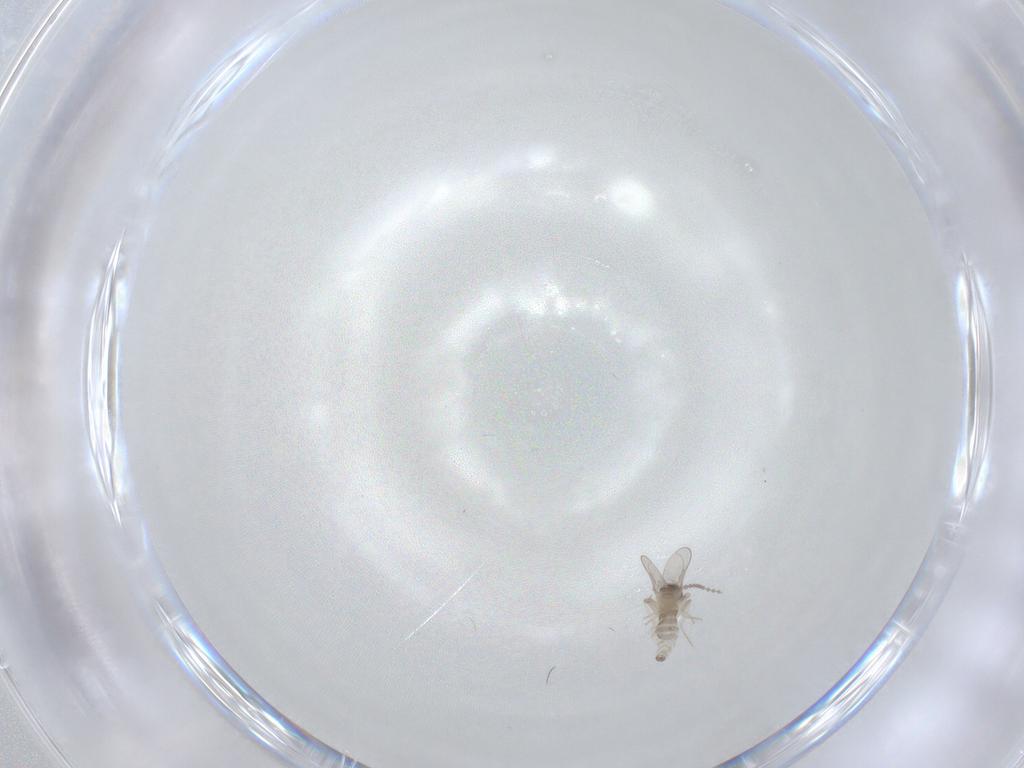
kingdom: Animalia
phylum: Arthropoda
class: Insecta
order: Diptera
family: Cecidomyiidae
